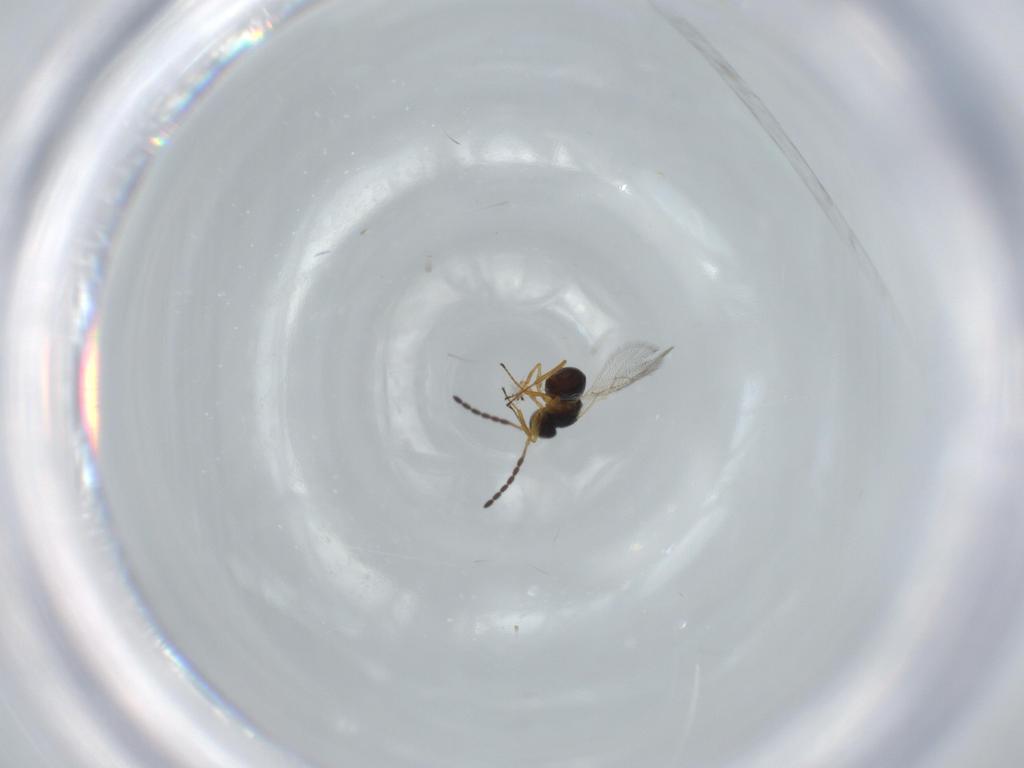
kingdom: Animalia
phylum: Arthropoda
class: Insecta
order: Hymenoptera
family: Figitidae
